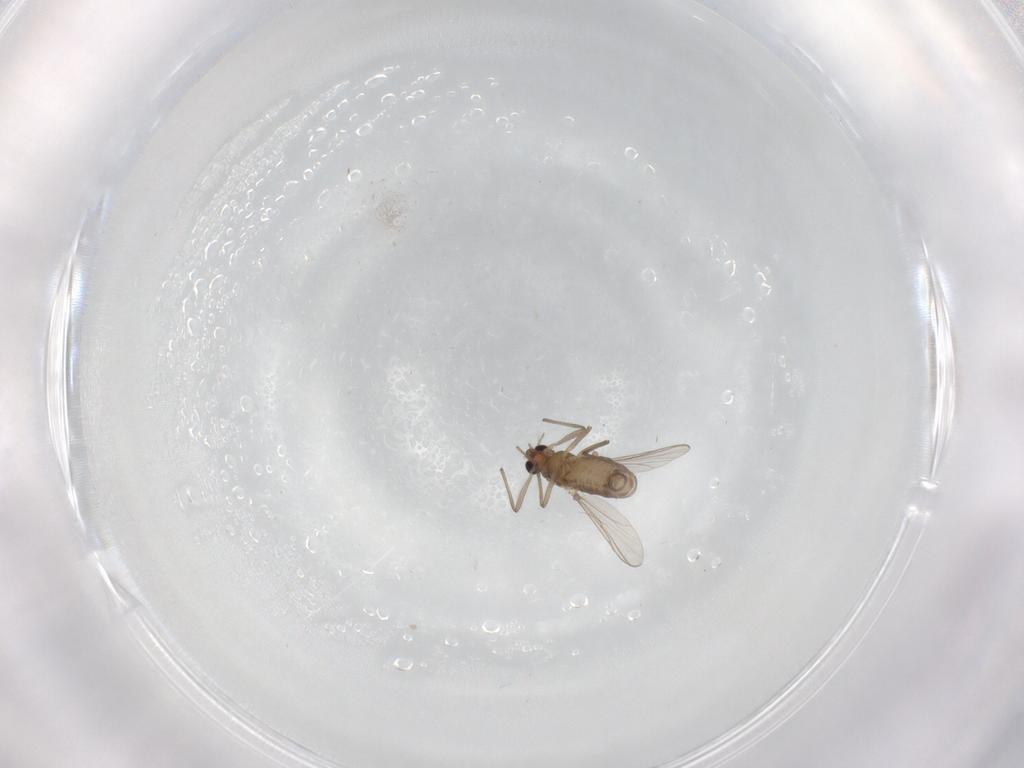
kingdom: Animalia
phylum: Arthropoda
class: Insecta
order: Diptera
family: Chironomidae
